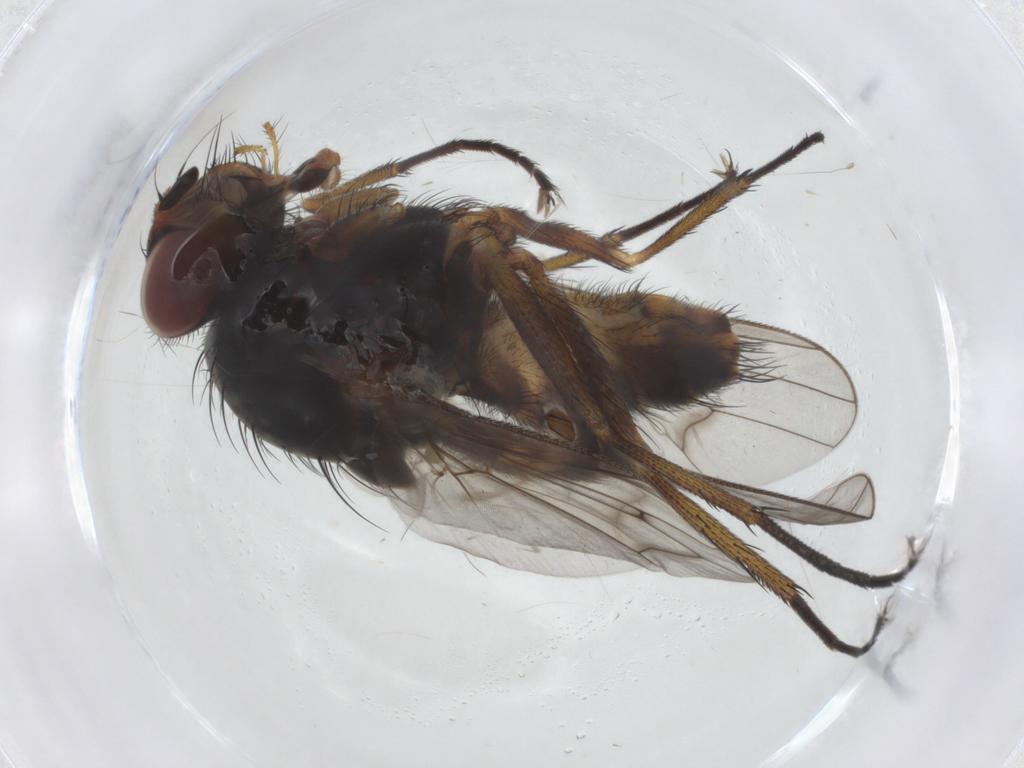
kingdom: Animalia
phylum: Arthropoda
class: Insecta
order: Diptera
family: Anthomyiidae
